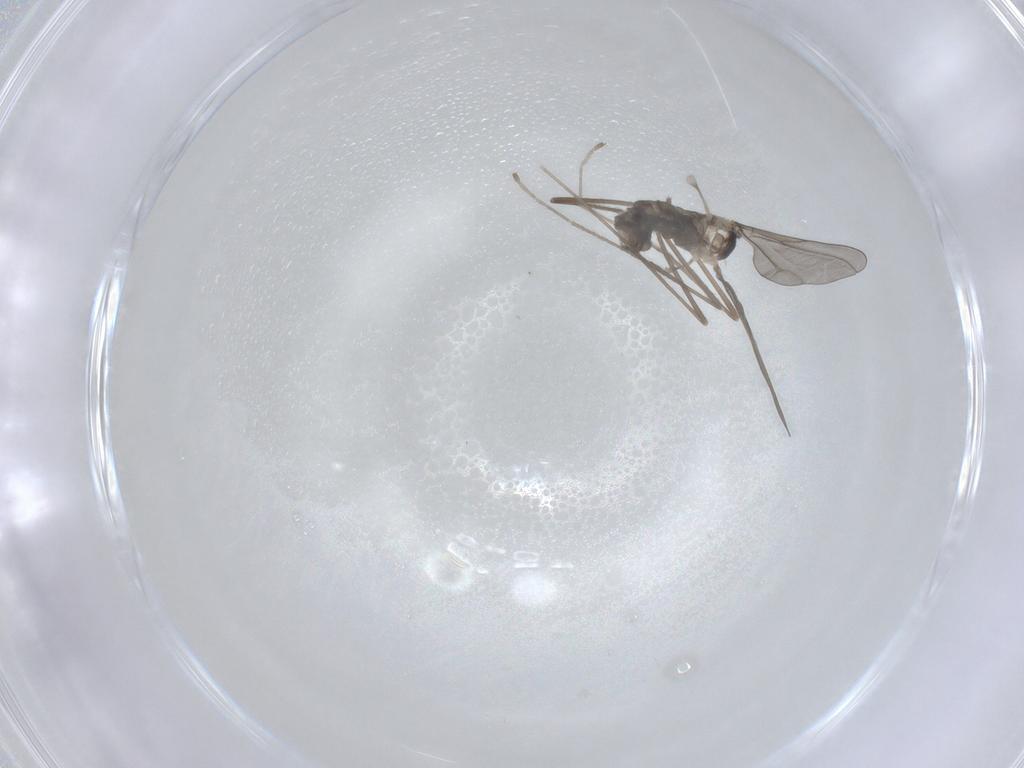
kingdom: Animalia
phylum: Arthropoda
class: Insecta
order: Diptera
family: Cecidomyiidae
